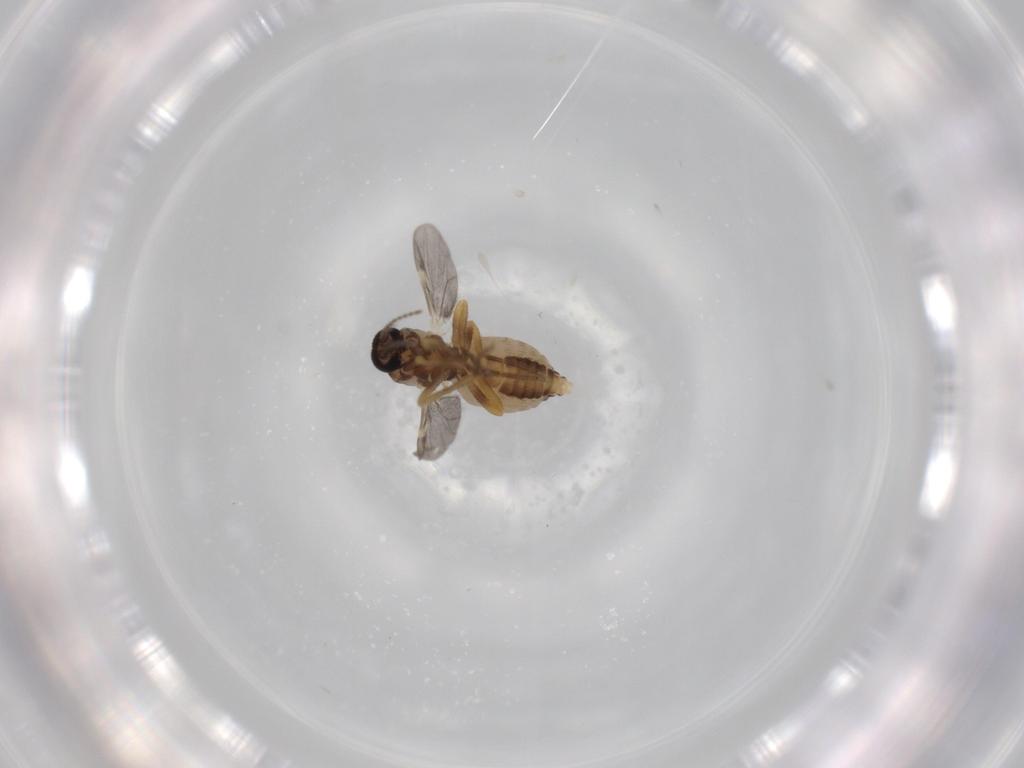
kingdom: Animalia
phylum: Arthropoda
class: Insecta
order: Diptera
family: Ceratopogonidae
